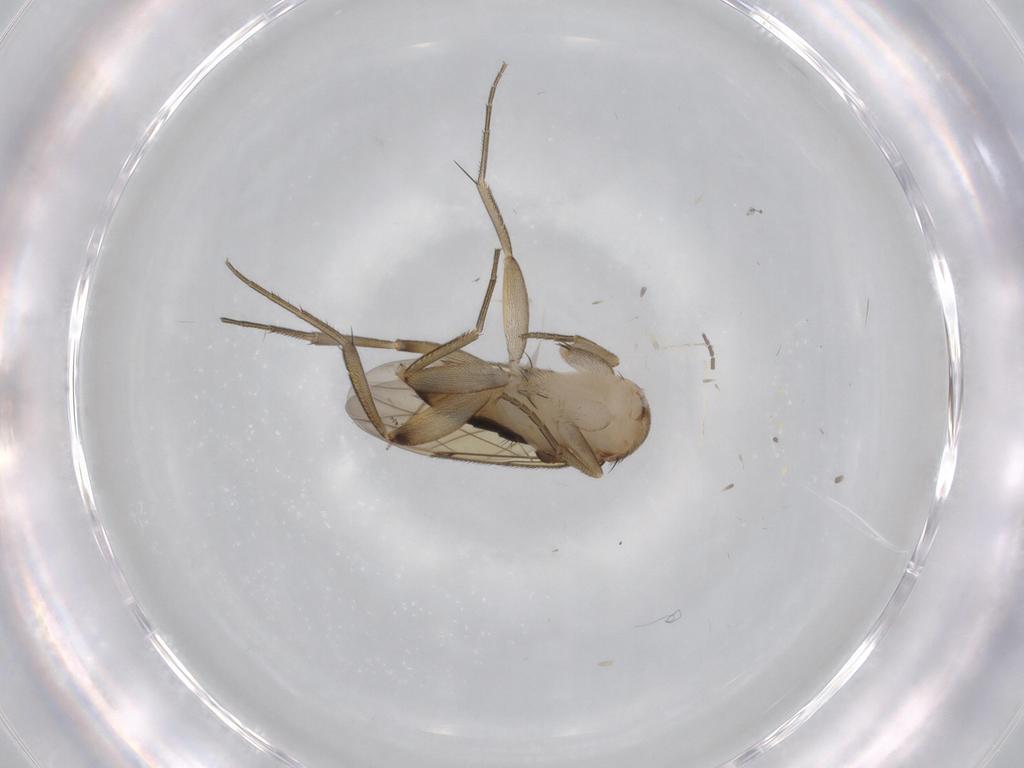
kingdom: Animalia
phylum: Arthropoda
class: Insecta
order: Diptera
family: Phoridae
